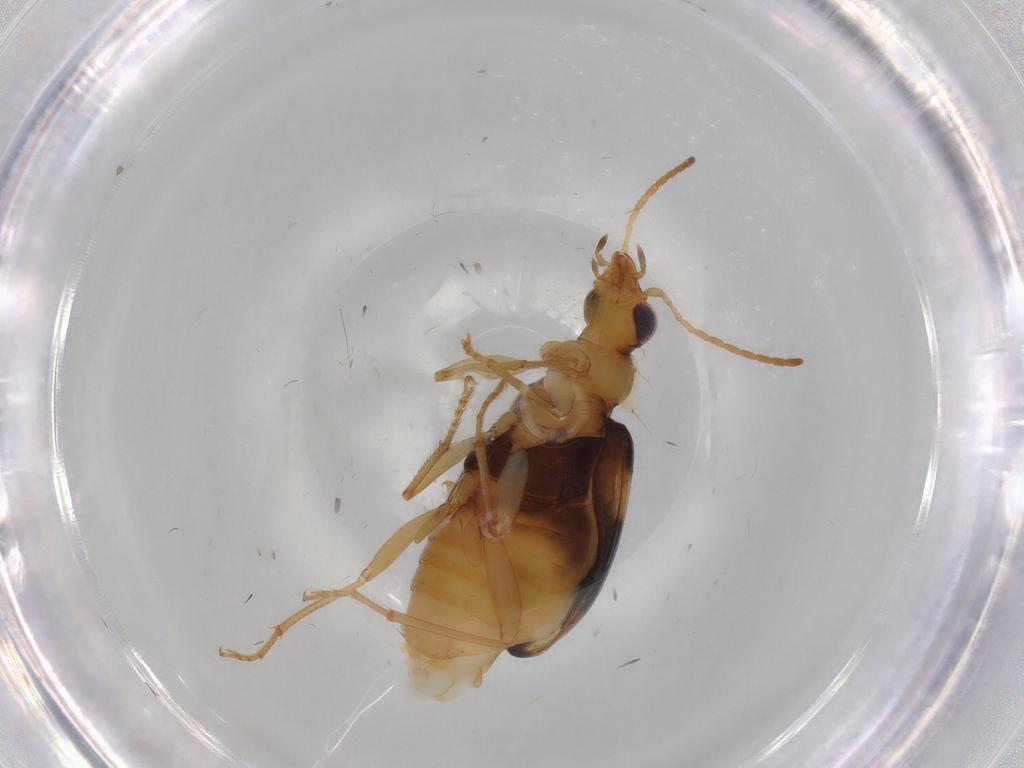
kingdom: Animalia
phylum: Arthropoda
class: Insecta
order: Coleoptera
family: Carabidae
